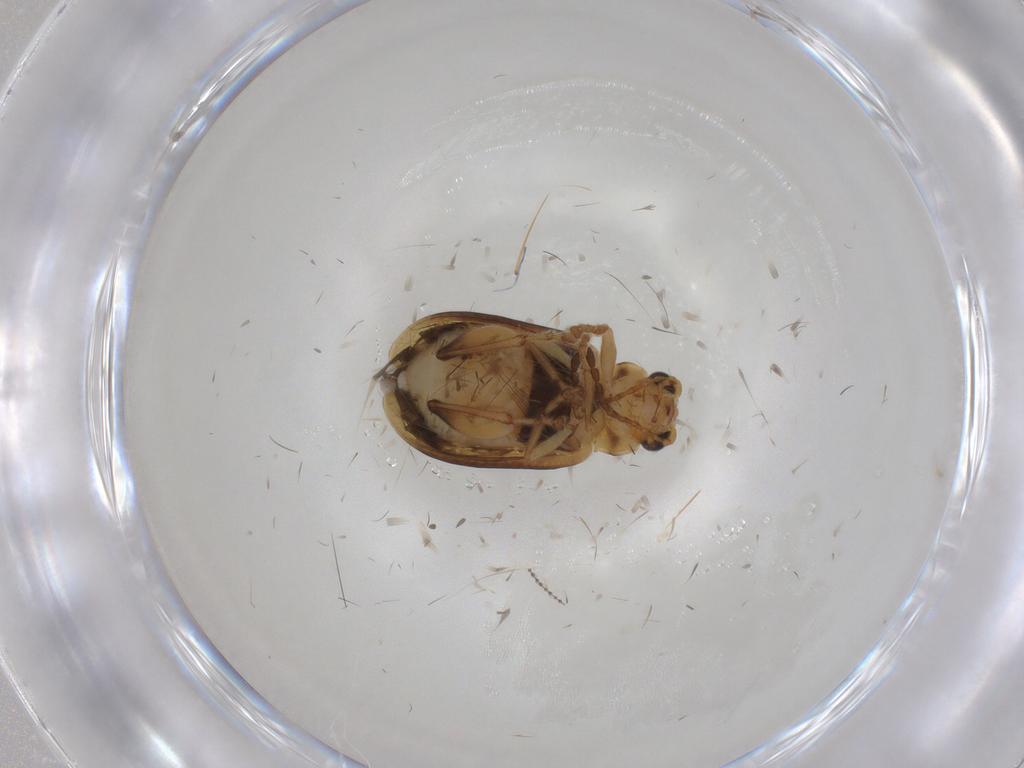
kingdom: Animalia
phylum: Arthropoda
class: Insecta
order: Coleoptera
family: Chrysomelidae
